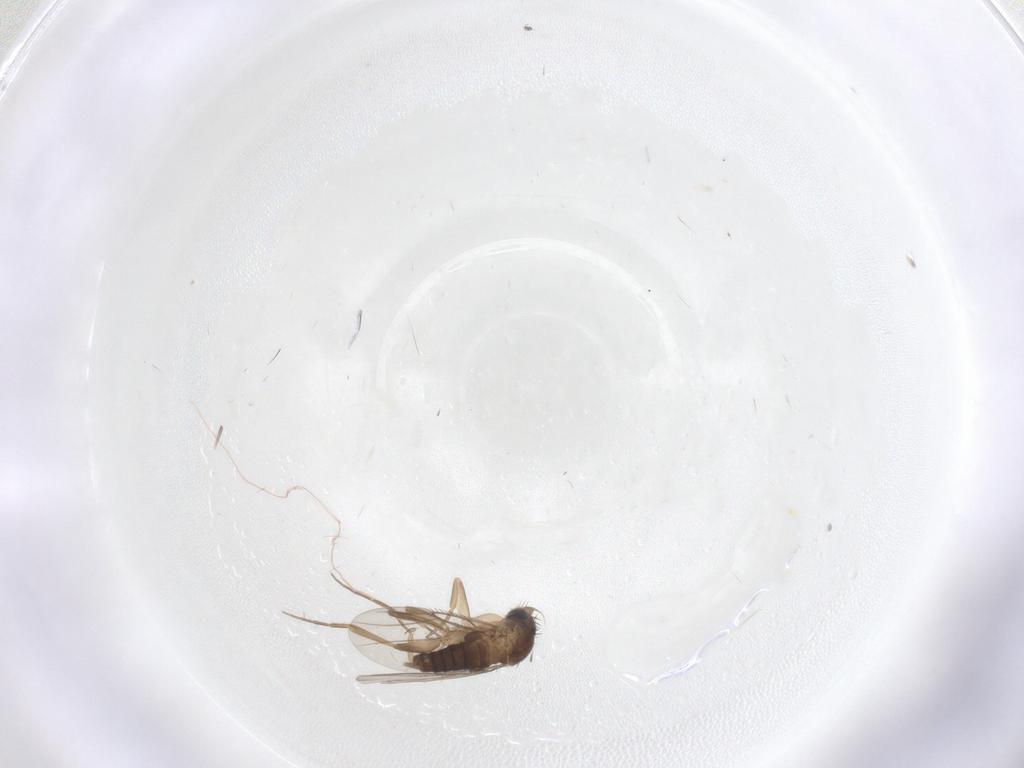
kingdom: Animalia
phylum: Arthropoda
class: Insecta
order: Diptera
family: Phoridae
